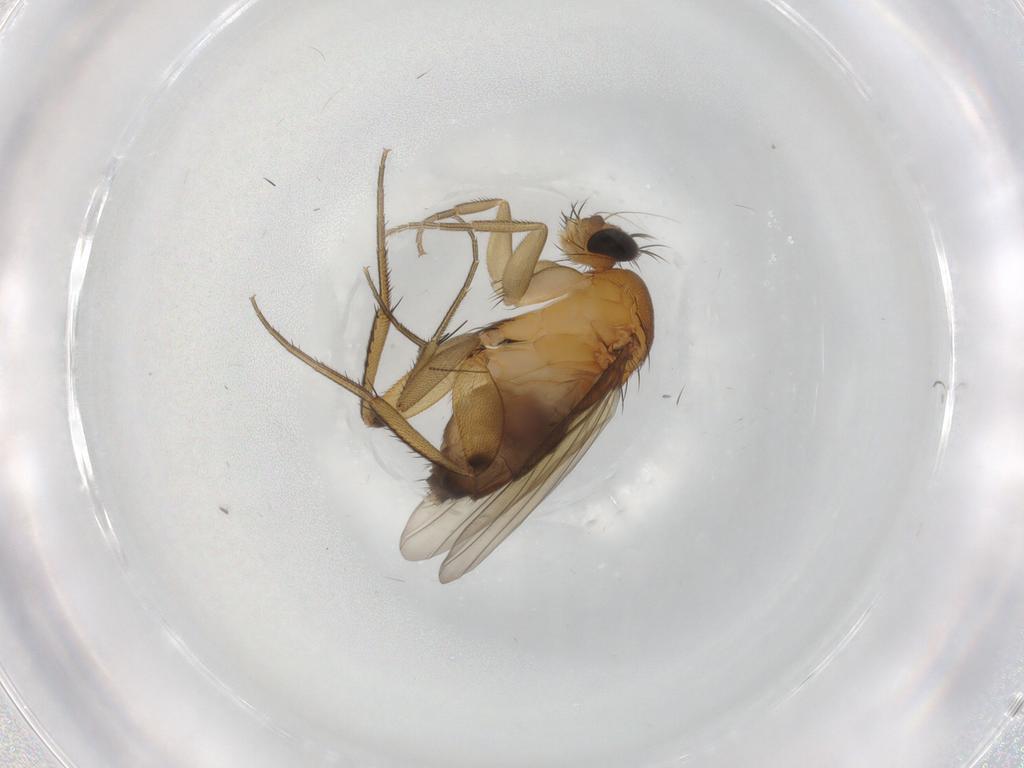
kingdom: Animalia
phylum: Arthropoda
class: Insecta
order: Diptera
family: Phoridae
